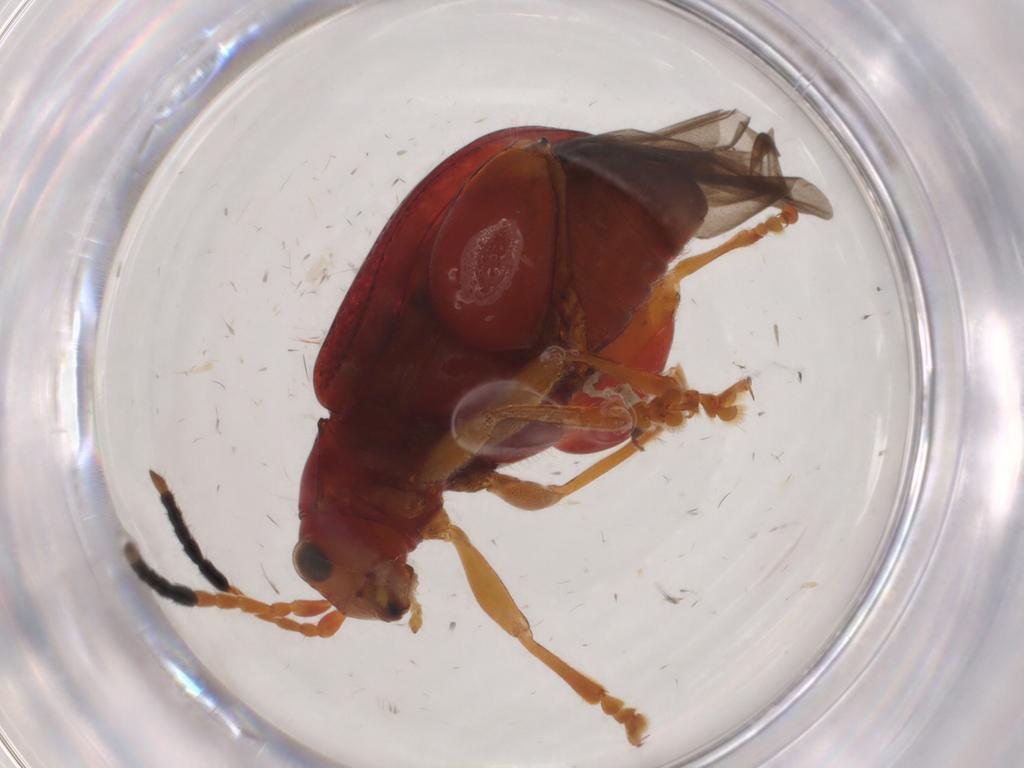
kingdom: Animalia
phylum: Arthropoda
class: Insecta
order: Coleoptera
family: Chrysomelidae
